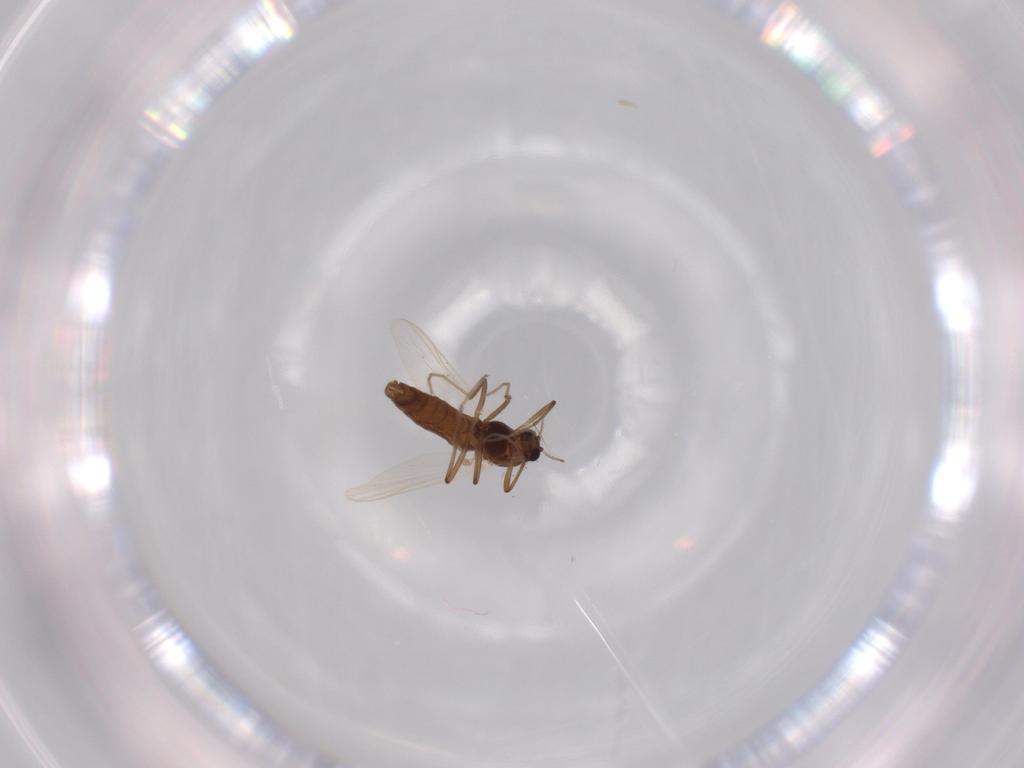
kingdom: Animalia
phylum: Arthropoda
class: Insecta
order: Diptera
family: Chironomidae
